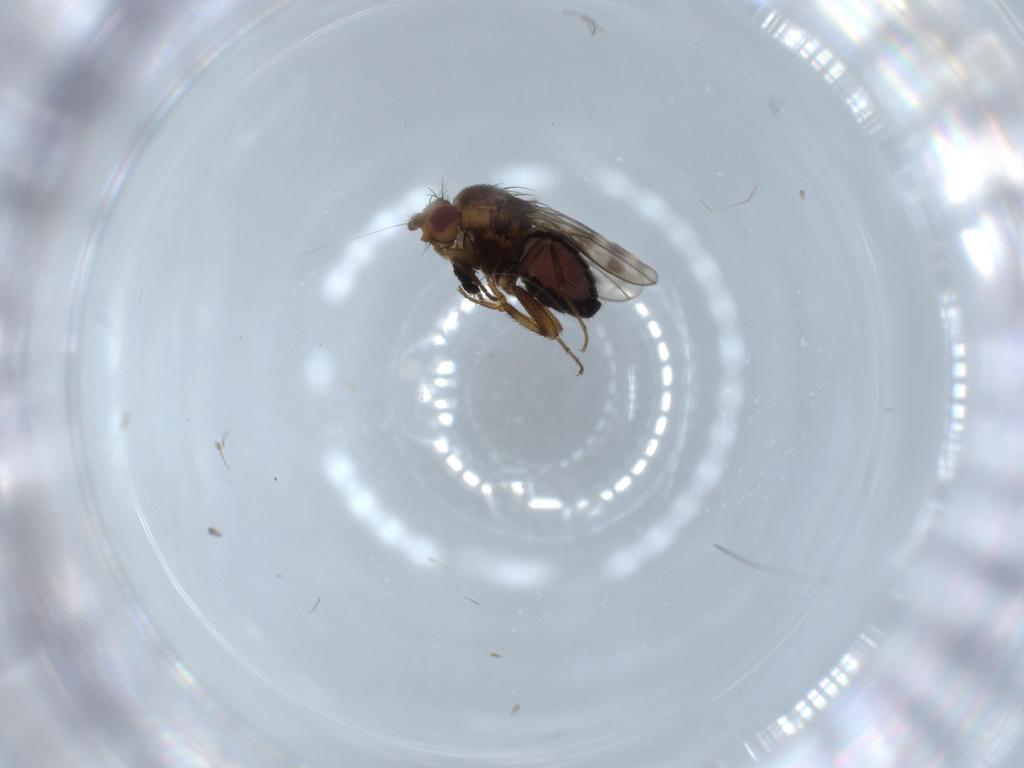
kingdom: Animalia
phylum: Arthropoda
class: Insecta
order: Diptera
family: Sphaeroceridae
